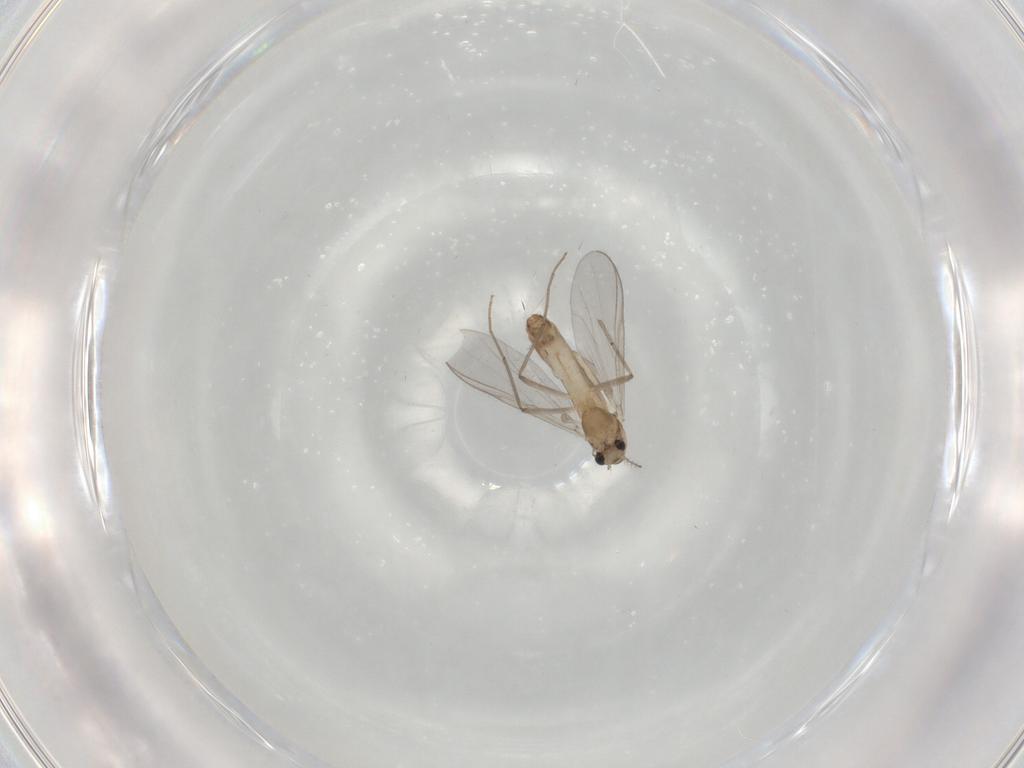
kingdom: Animalia
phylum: Arthropoda
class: Insecta
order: Diptera
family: Chironomidae
